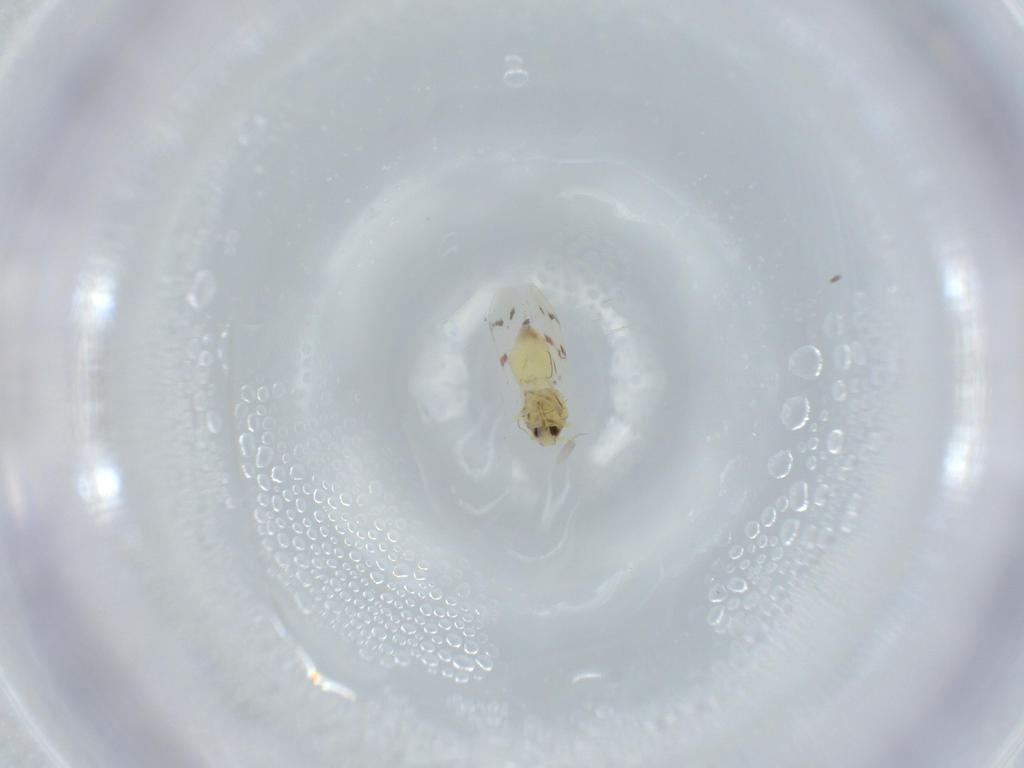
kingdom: Animalia
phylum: Arthropoda
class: Insecta
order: Hemiptera
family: Aleyrodidae
